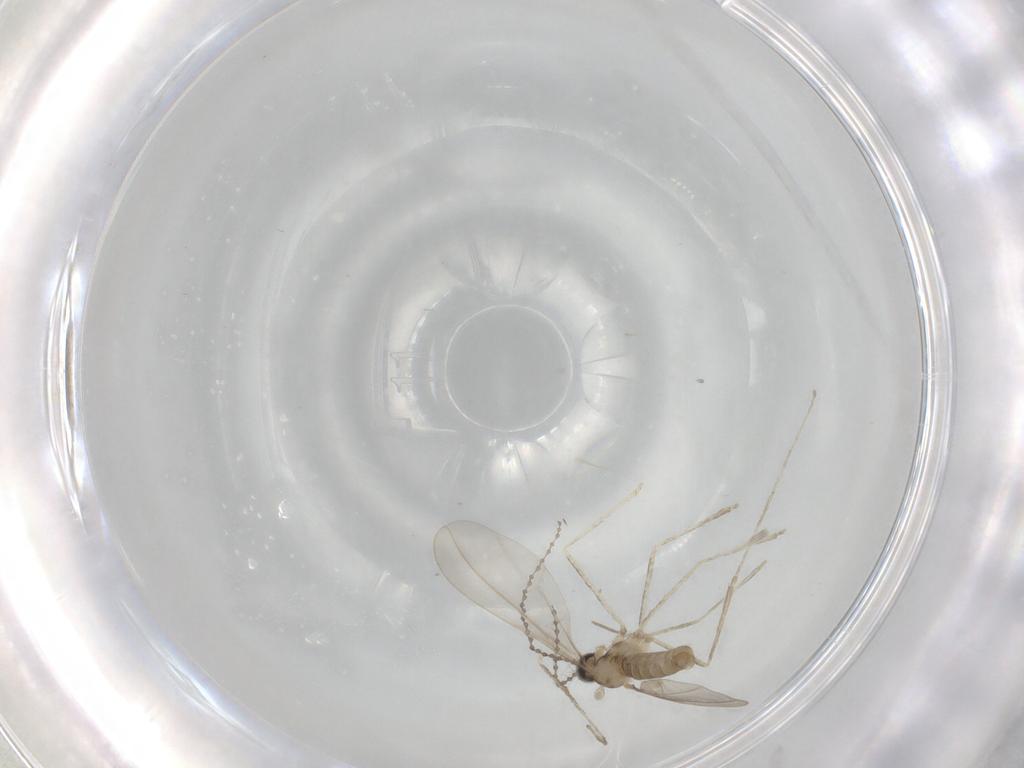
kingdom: Animalia
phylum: Arthropoda
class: Insecta
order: Diptera
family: Cecidomyiidae
